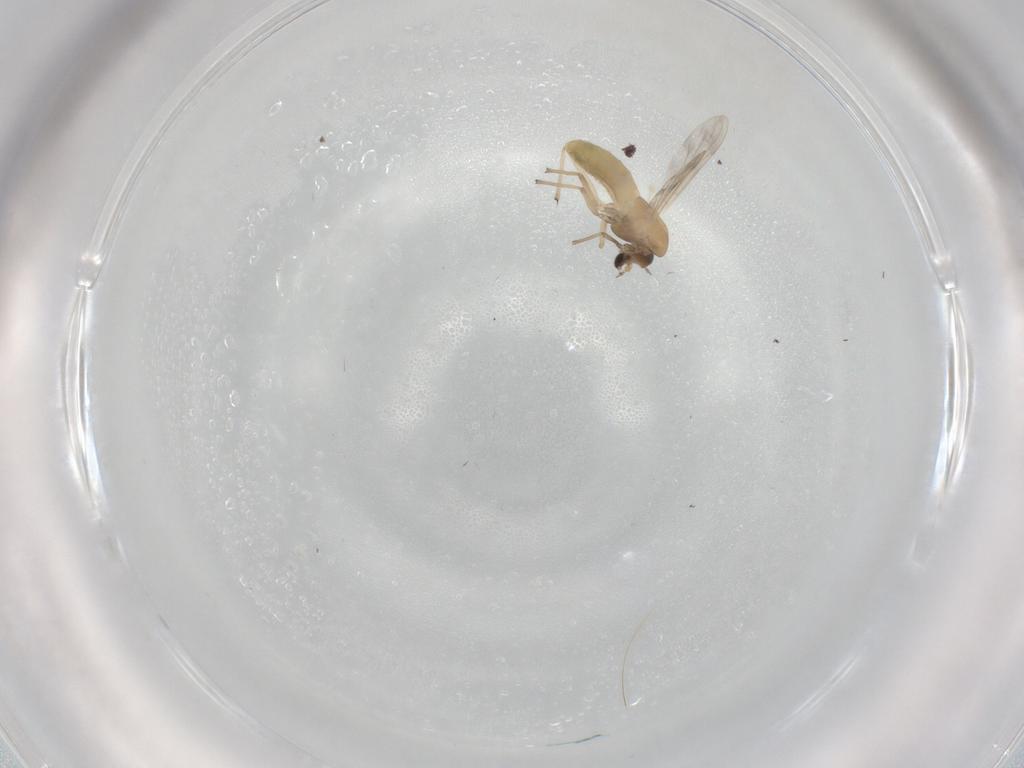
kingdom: Animalia
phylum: Arthropoda
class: Insecta
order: Diptera
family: Chironomidae
